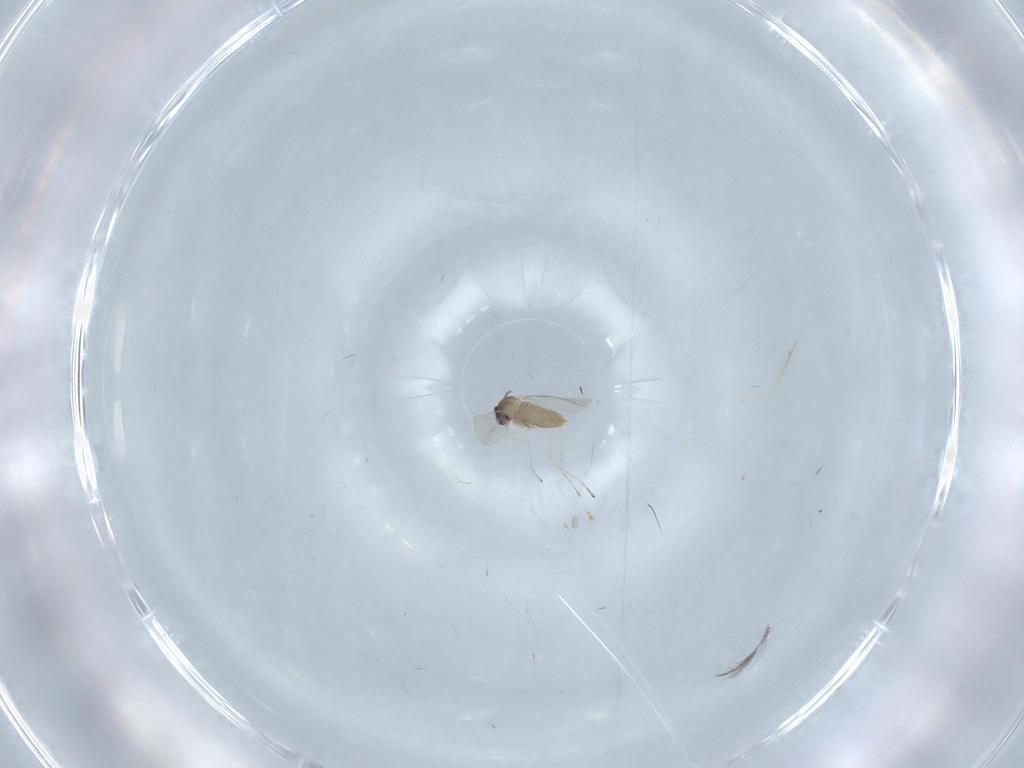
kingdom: Animalia
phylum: Arthropoda
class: Insecta
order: Diptera
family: Cecidomyiidae
